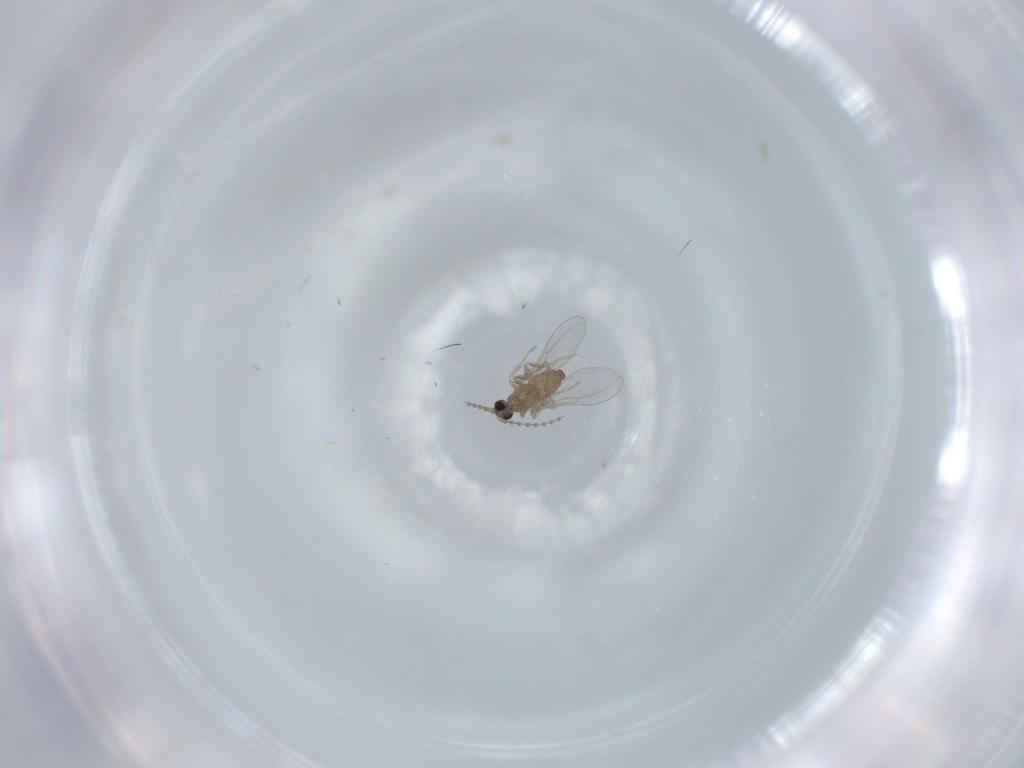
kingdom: Animalia
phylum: Arthropoda
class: Insecta
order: Diptera
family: Cecidomyiidae
